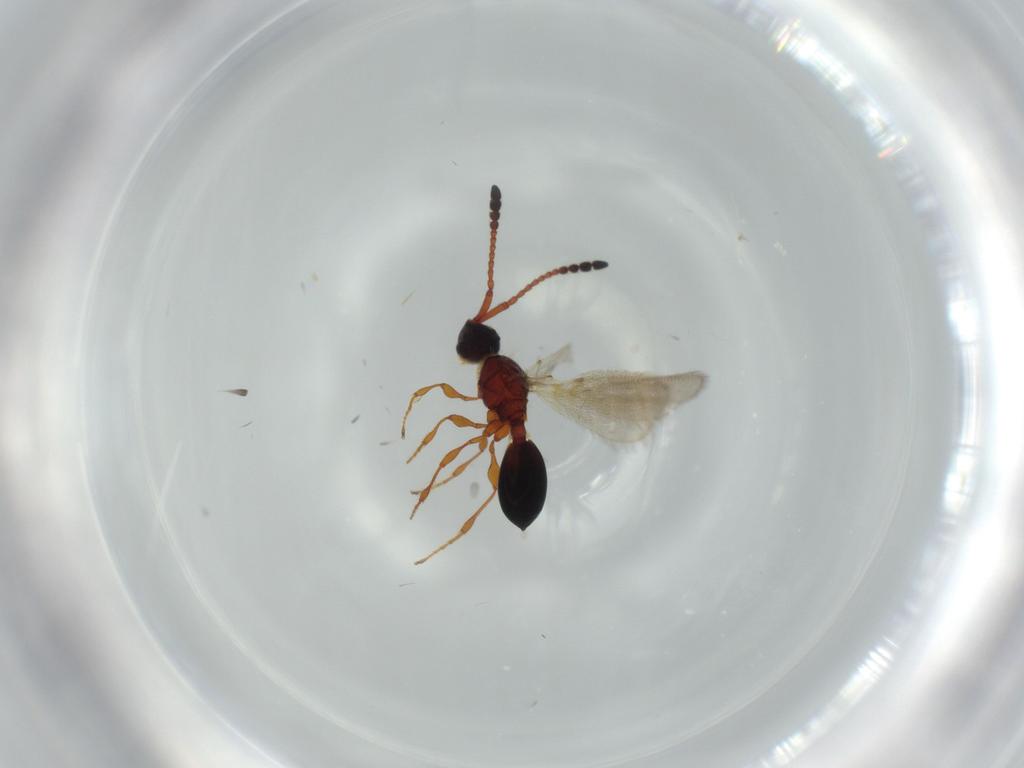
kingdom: Animalia
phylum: Arthropoda
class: Insecta
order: Hymenoptera
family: Diapriidae
